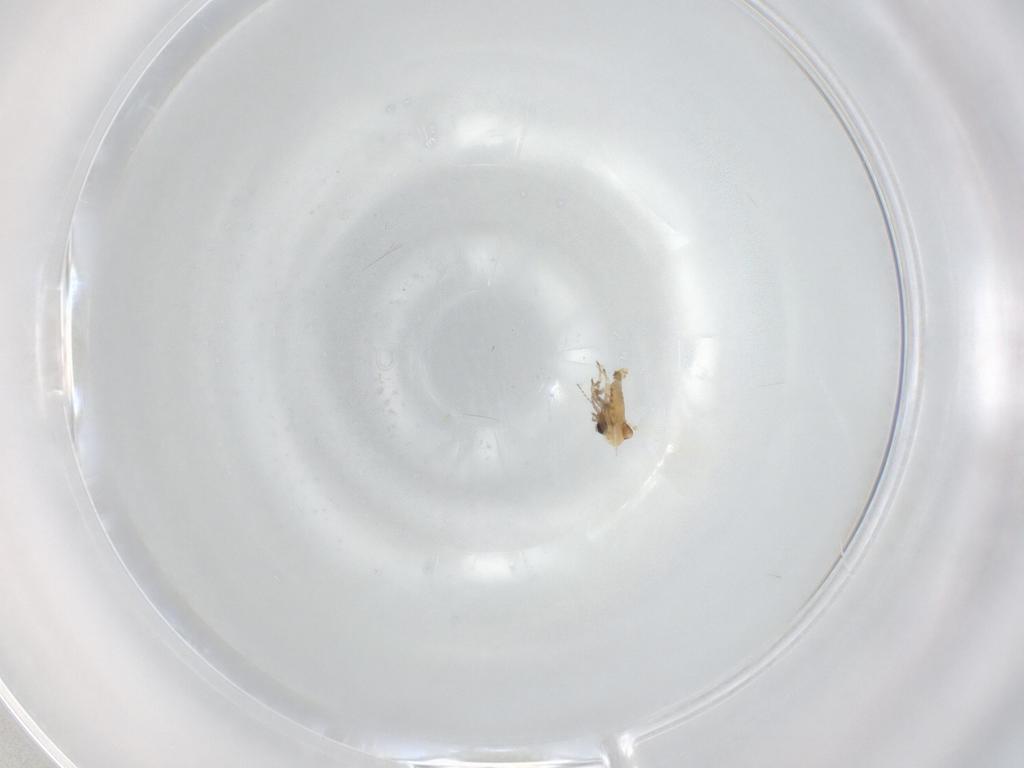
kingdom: Animalia
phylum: Arthropoda
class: Insecta
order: Diptera
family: Ceratopogonidae
